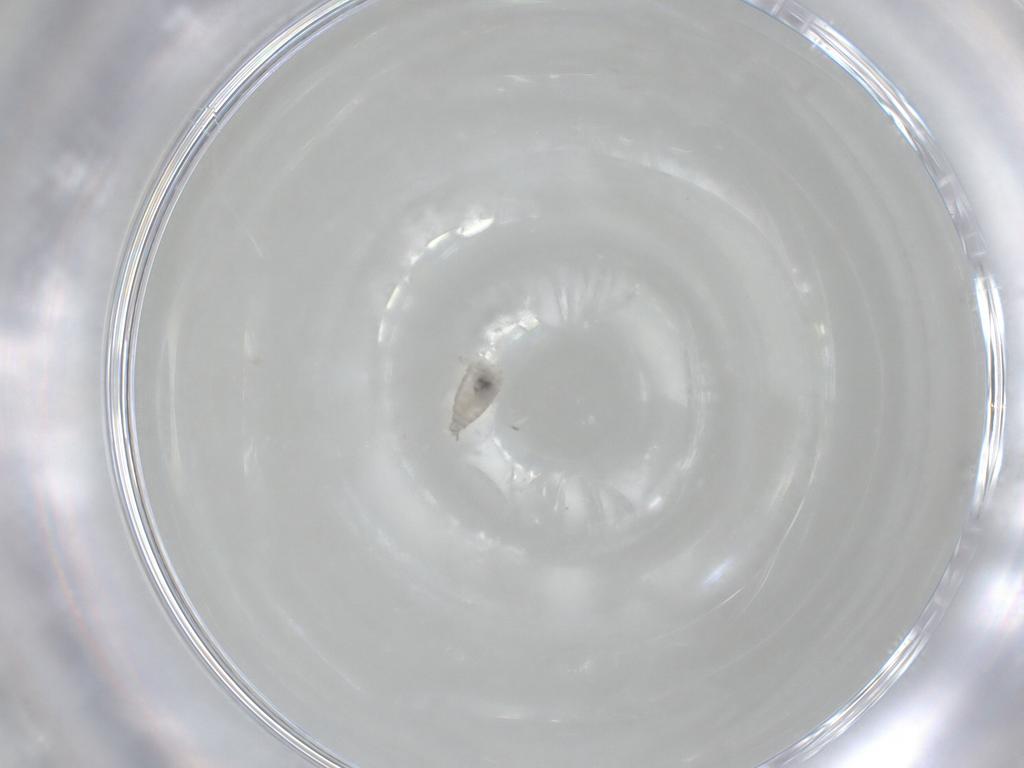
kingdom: Animalia
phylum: Arthropoda
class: Insecta
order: Diptera
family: Cecidomyiidae
